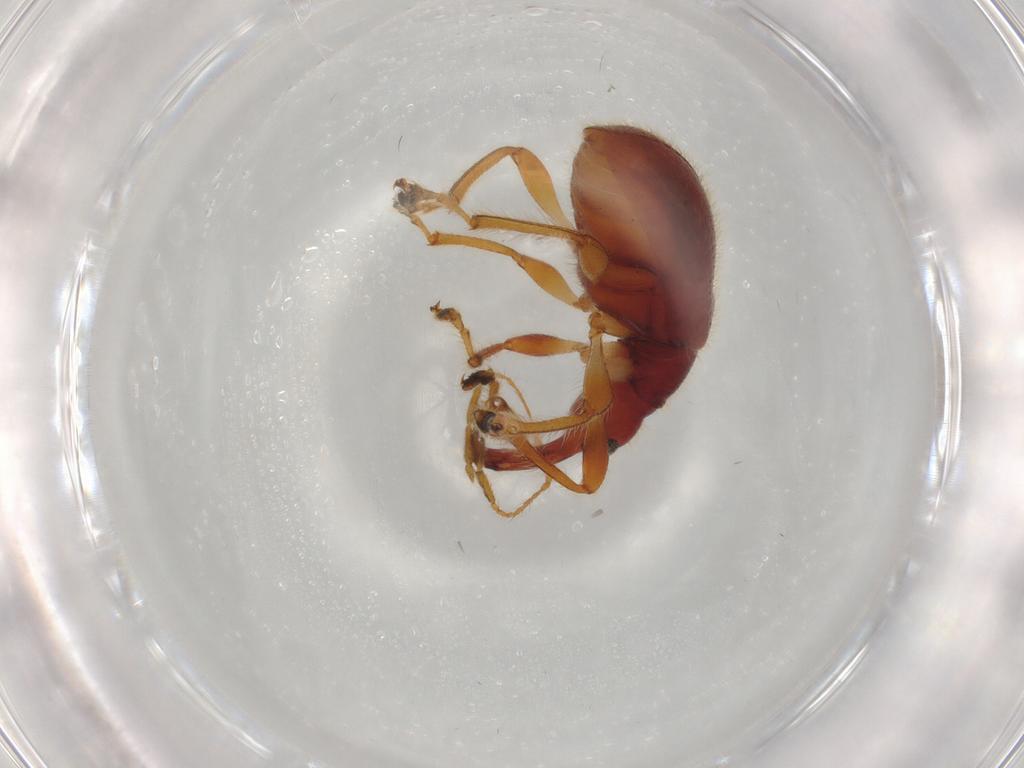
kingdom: Animalia
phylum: Arthropoda
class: Insecta
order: Coleoptera
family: Attelabidae
